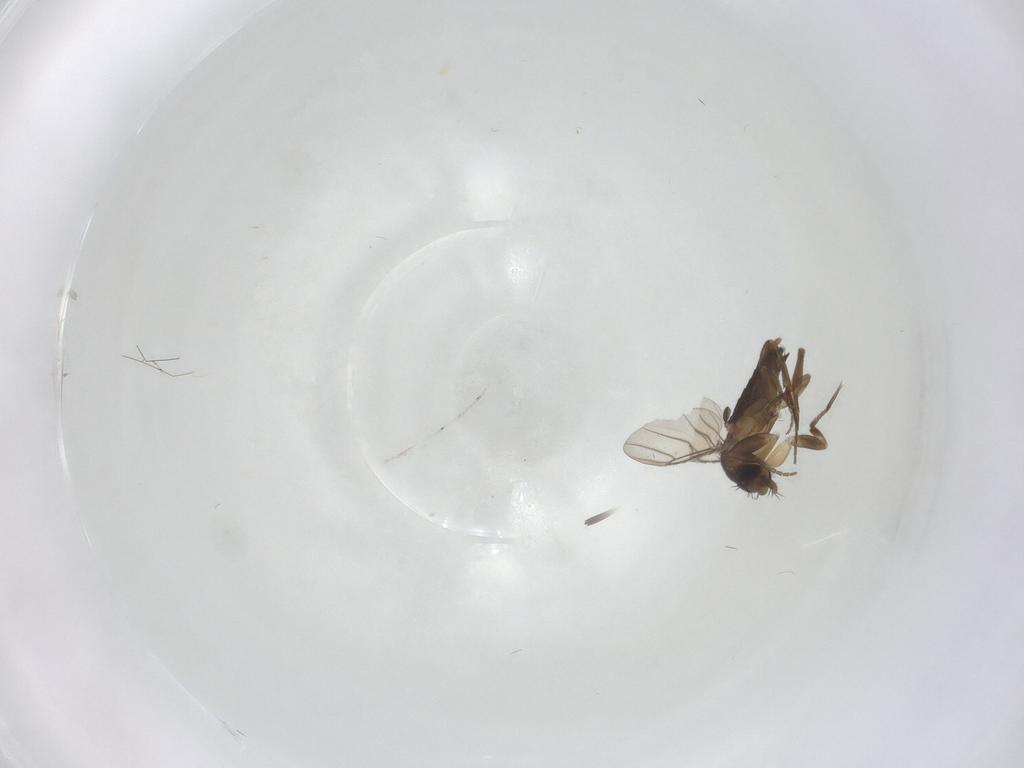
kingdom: Animalia
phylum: Arthropoda
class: Insecta
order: Diptera
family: Phoridae
